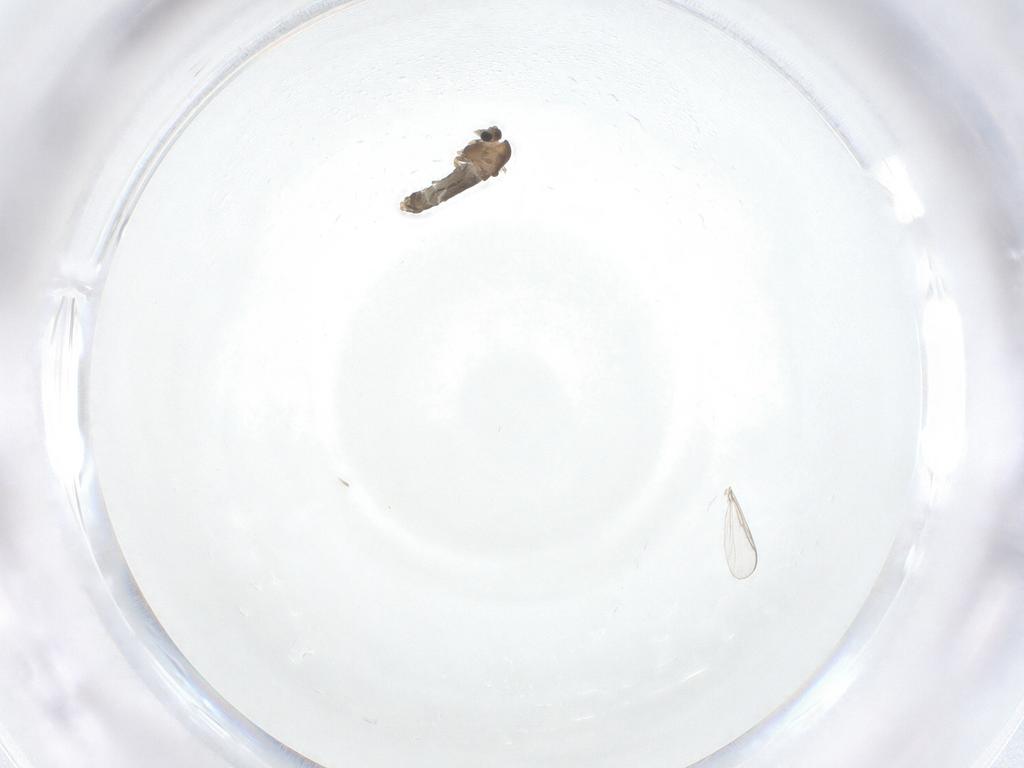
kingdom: Animalia
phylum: Arthropoda
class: Insecta
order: Diptera
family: Chironomidae
